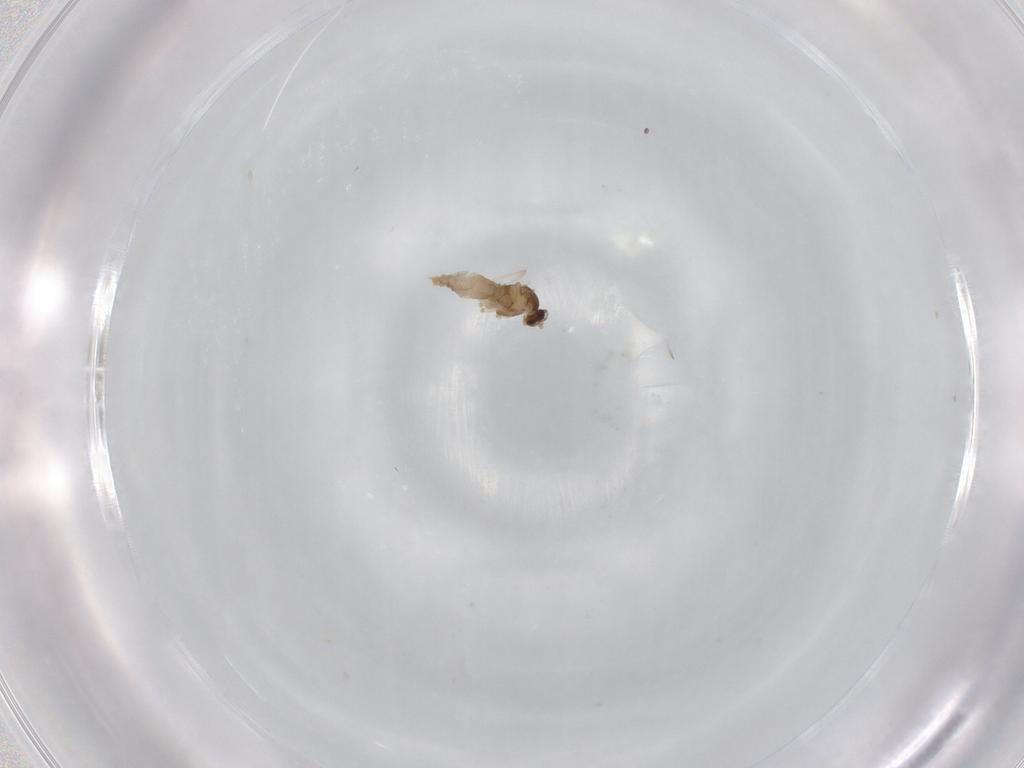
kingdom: Animalia
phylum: Arthropoda
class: Insecta
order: Diptera
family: Cecidomyiidae
